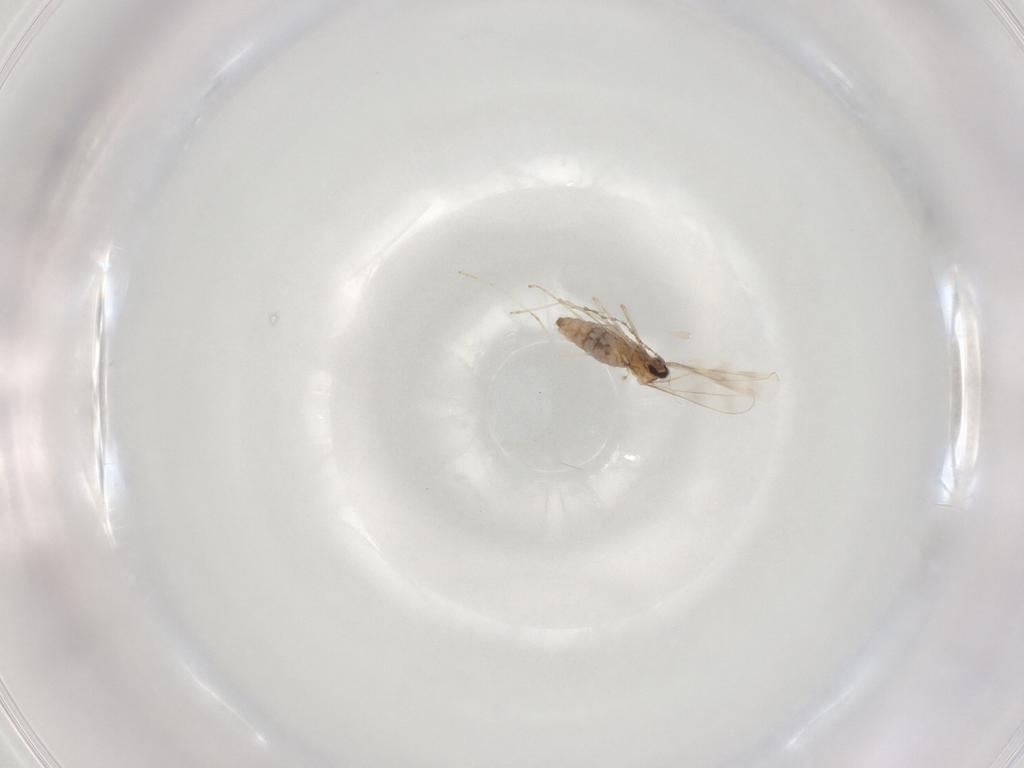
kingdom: Animalia
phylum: Arthropoda
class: Insecta
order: Diptera
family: Cecidomyiidae
